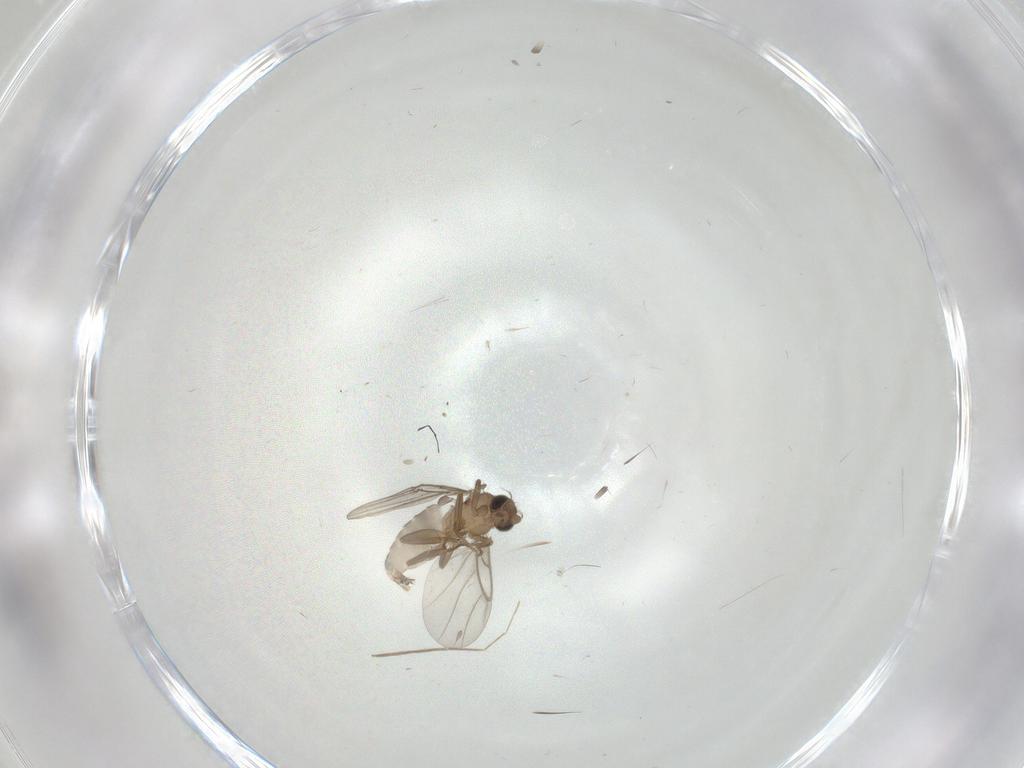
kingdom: Animalia
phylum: Arthropoda
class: Insecta
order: Diptera
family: Chironomidae
